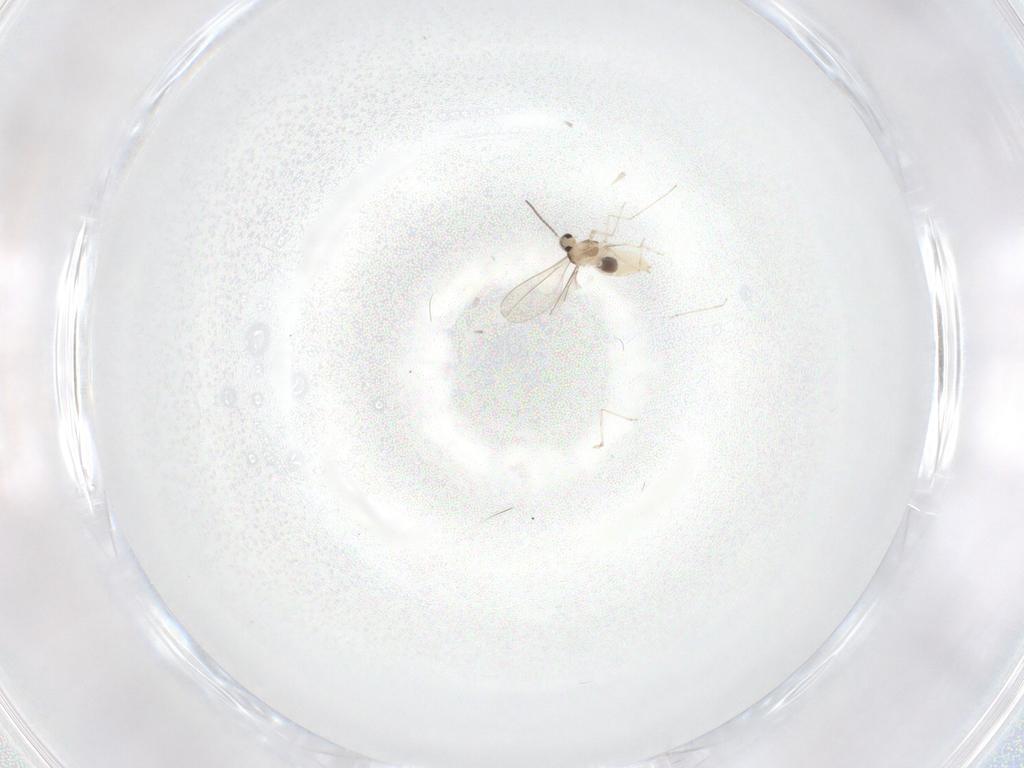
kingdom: Animalia
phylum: Arthropoda
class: Insecta
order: Diptera
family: Cecidomyiidae
